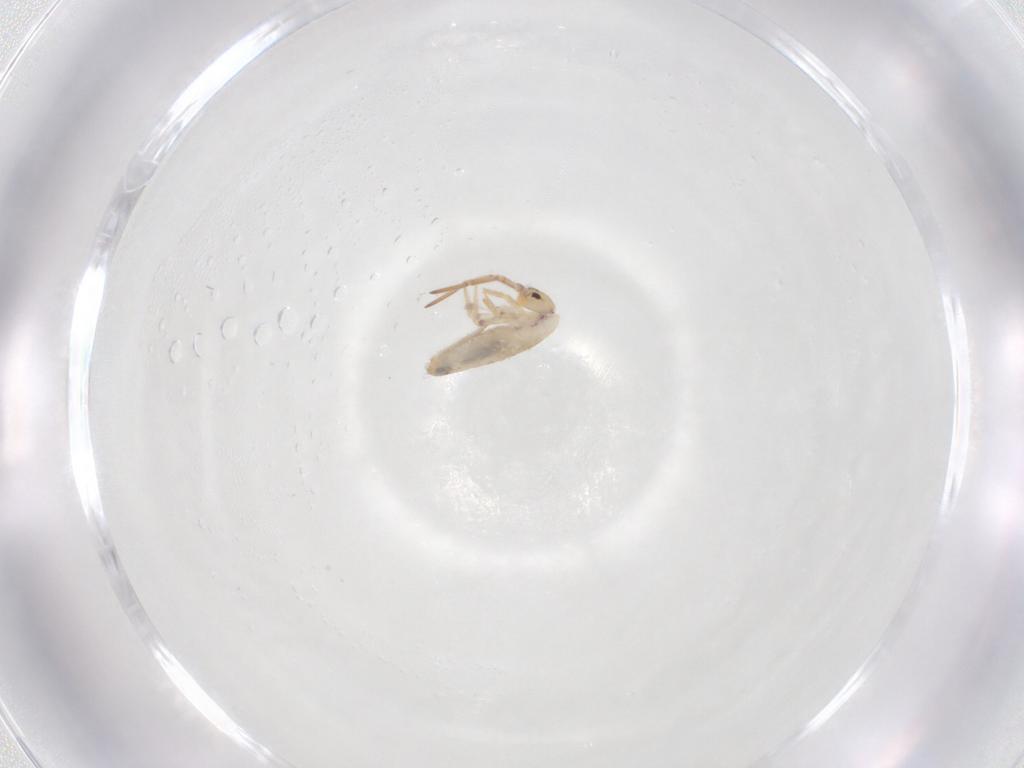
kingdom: Animalia
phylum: Arthropoda
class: Collembola
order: Entomobryomorpha
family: Entomobryidae
